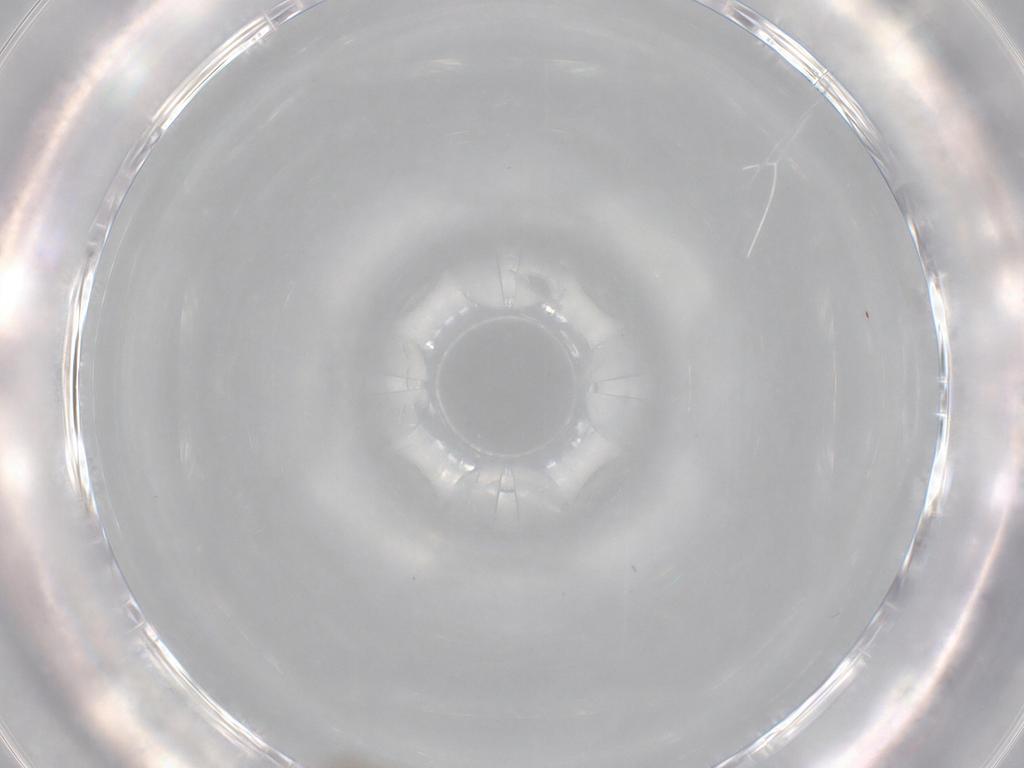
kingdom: Animalia
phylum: Arthropoda
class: Insecta
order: Diptera
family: Cecidomyiidae
